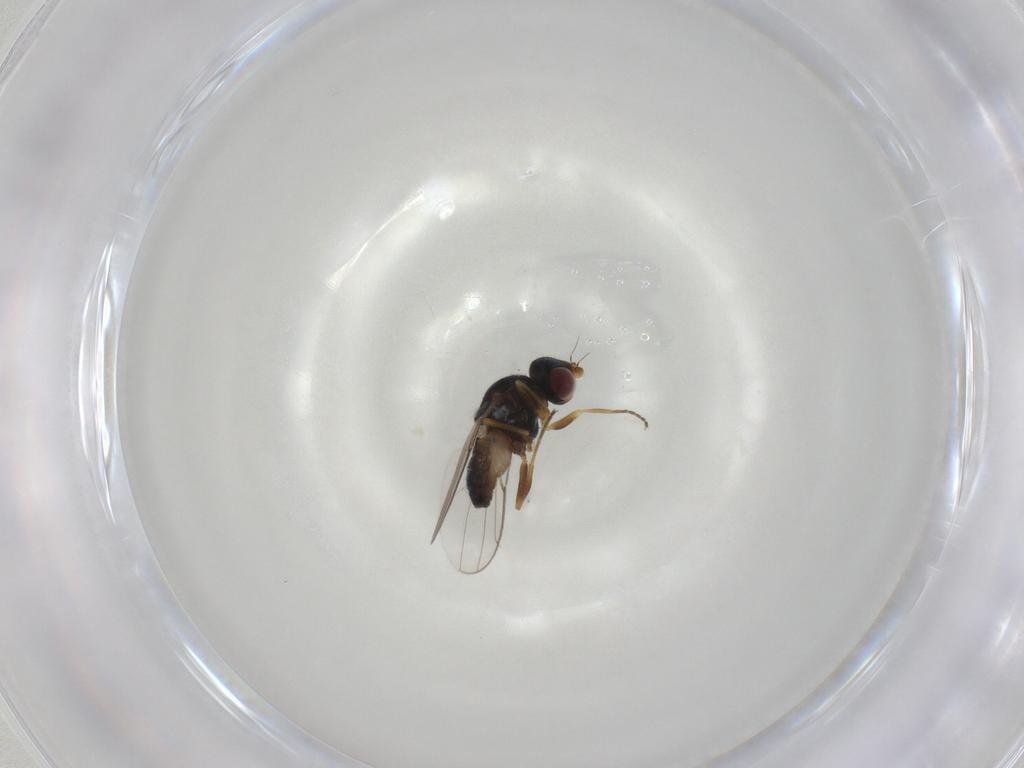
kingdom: Animalia
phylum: Arthropoda
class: Insecta
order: Diptera
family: Chloropidae
